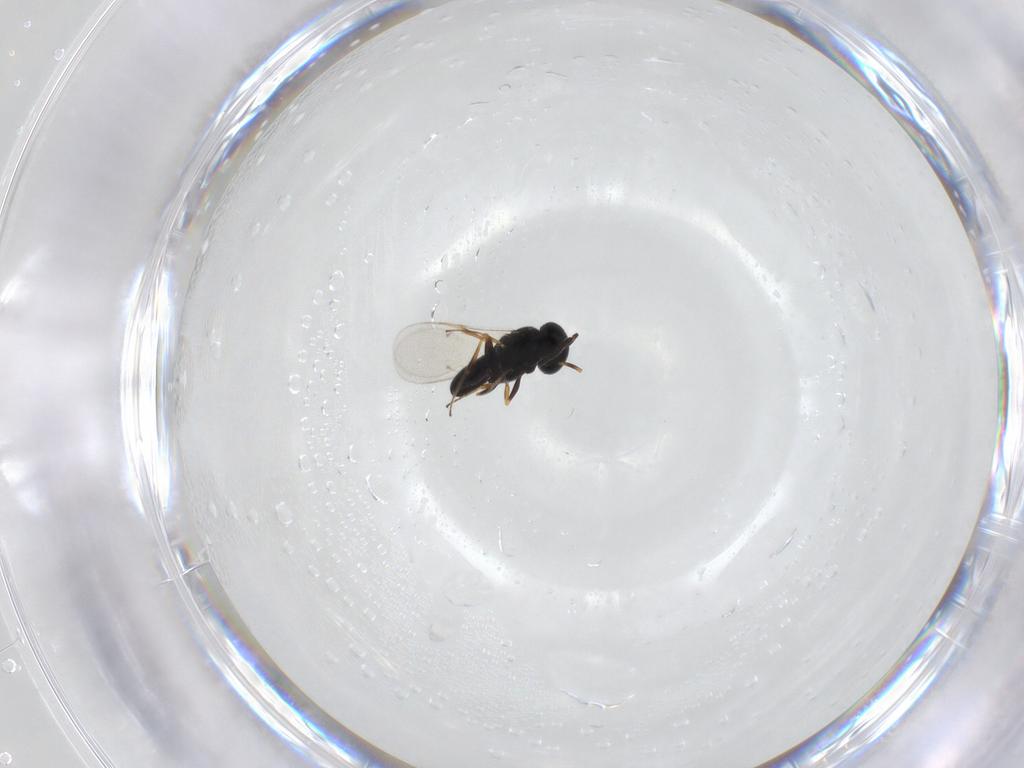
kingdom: Animalia
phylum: Arthropoda
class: Insecta
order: Hymenoptera
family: Scelionidae
